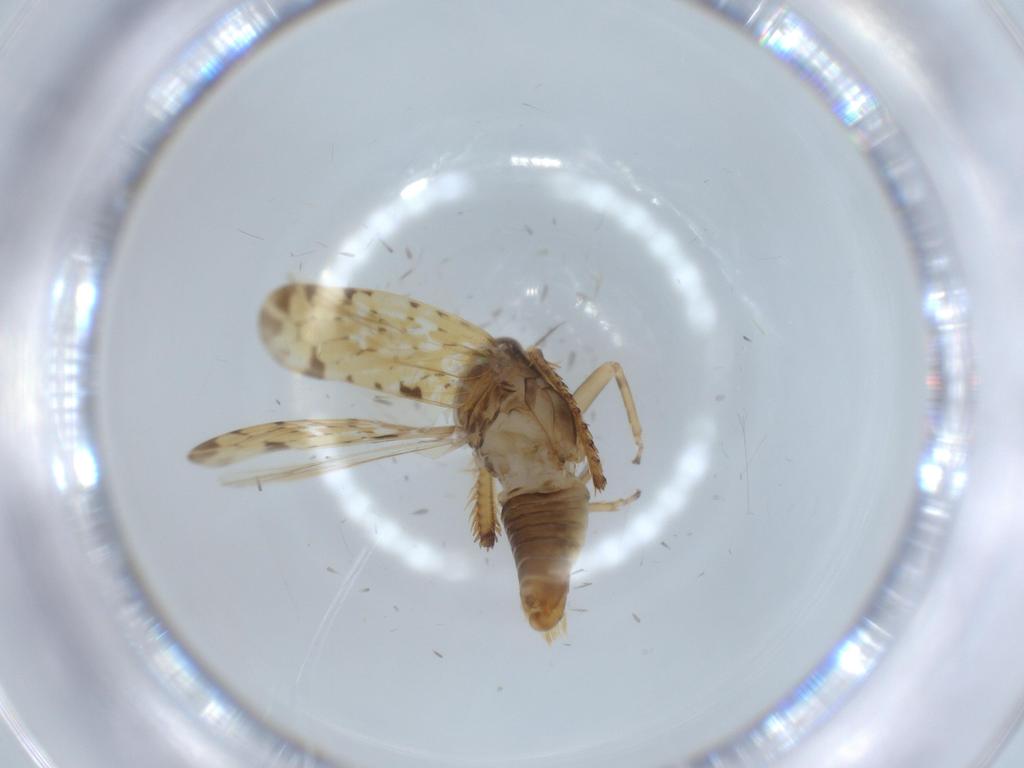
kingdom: Animalia
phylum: Arthropoda
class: Insecta
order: Hemiptera
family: Cicadellidae
